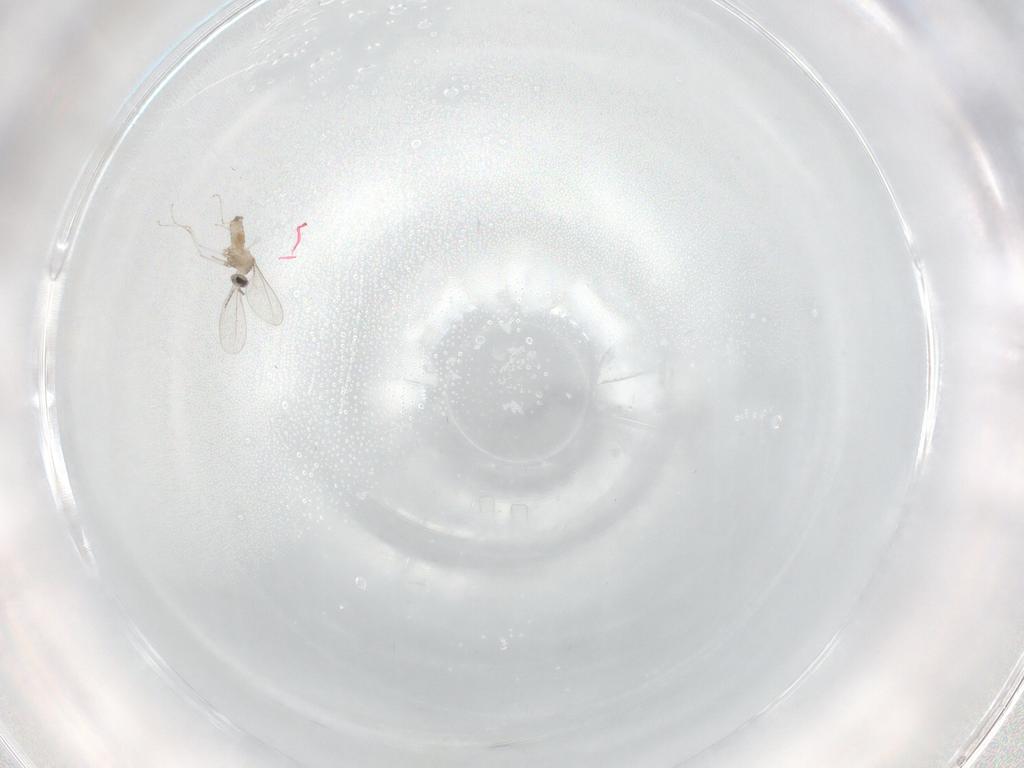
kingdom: Animalia
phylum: Arthropoda
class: Insecta
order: Diptera
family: Cecidomyiidae
